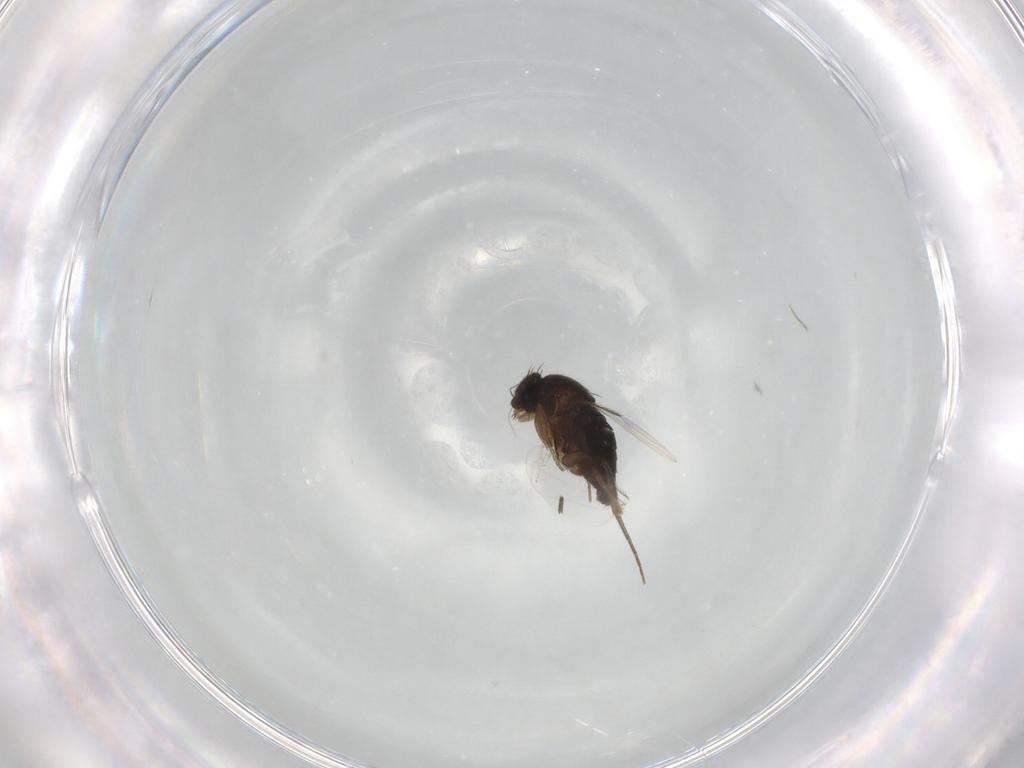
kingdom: Animalia
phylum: Arthropoda
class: Insecta
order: Diptera
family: Phoridae
